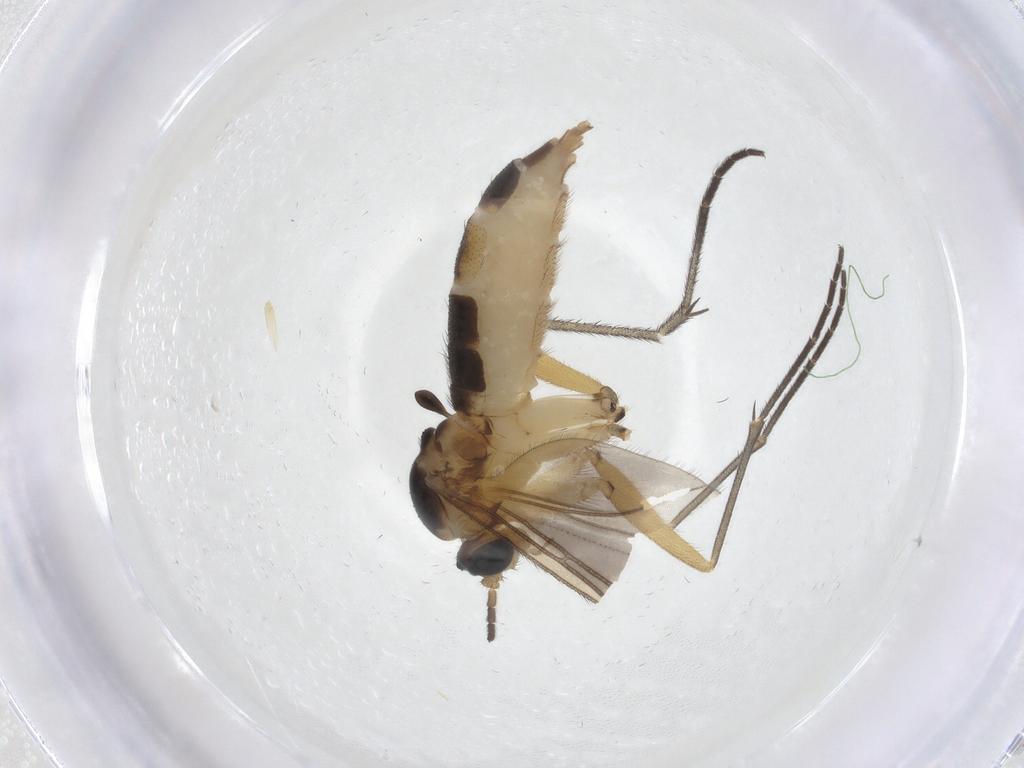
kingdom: Animalia
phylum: Arthropoda
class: Insecta
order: Diptera
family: Sciaridae
